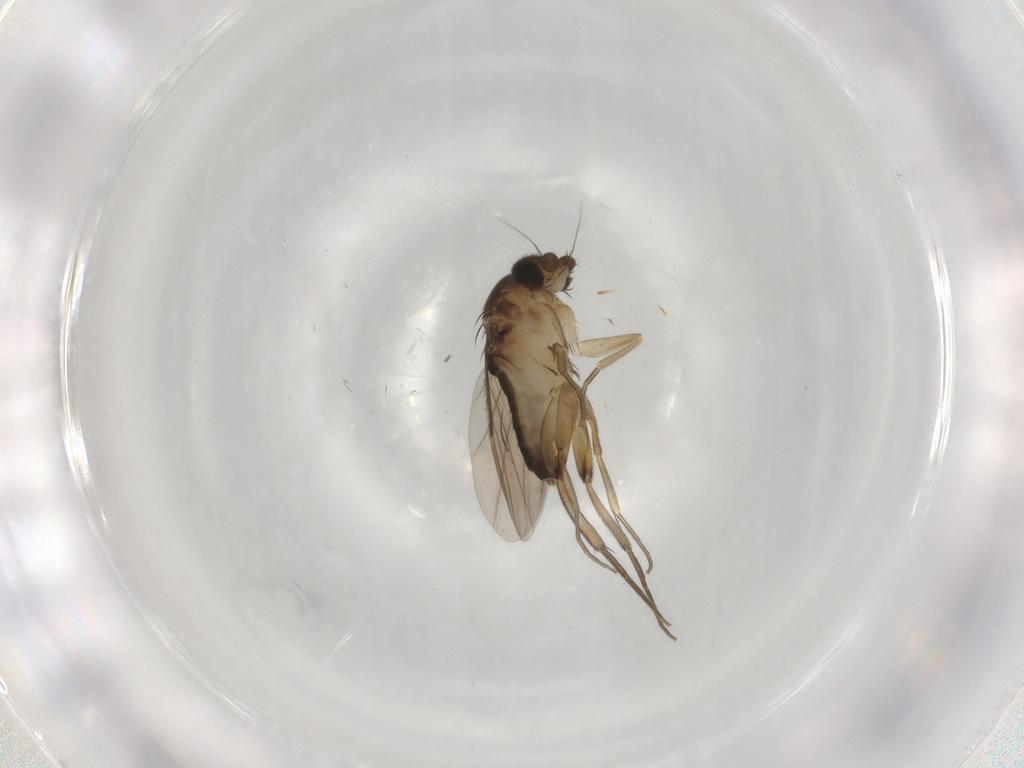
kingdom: Animalia
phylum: Arthropoda
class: Insecta
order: Diptera
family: Phoridae
